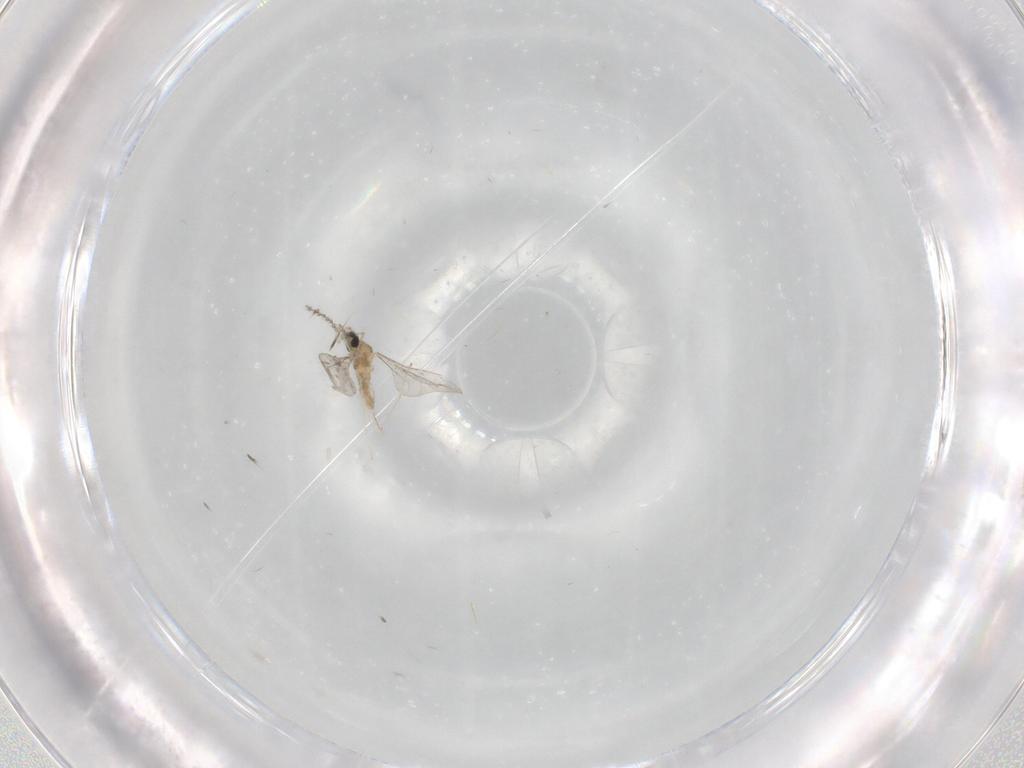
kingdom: Animalia
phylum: Arthropoda
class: Insecta
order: Diptera
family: Cecidomyiidae
